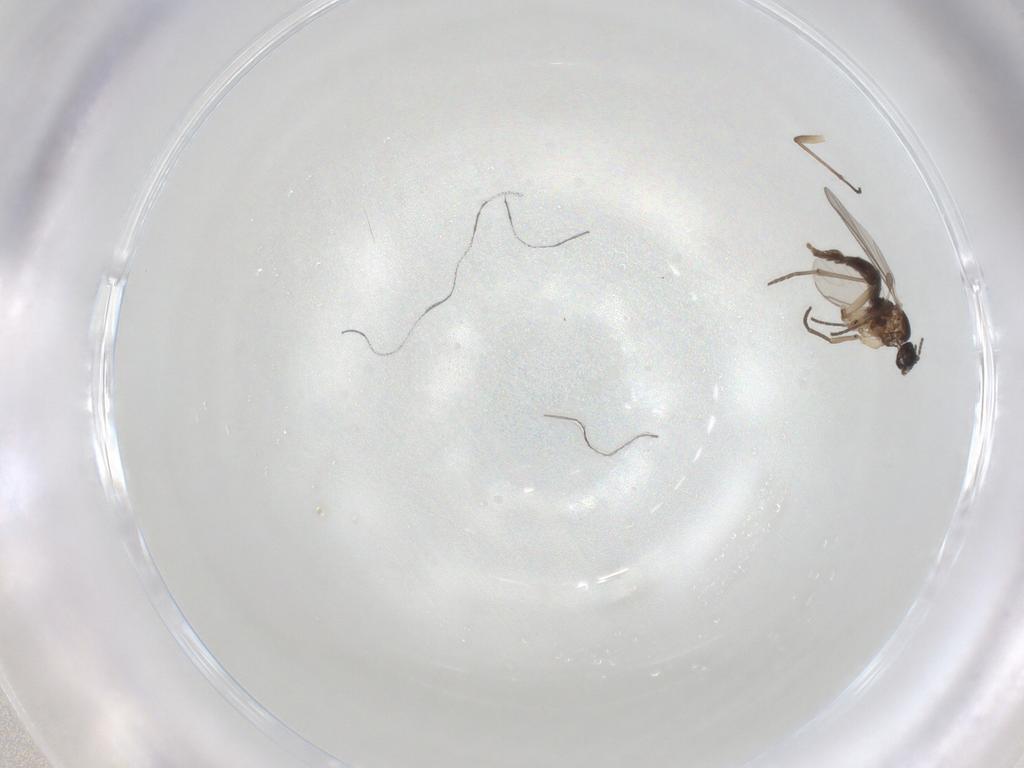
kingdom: Animalia
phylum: Arthropoda
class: Insecta
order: Diptera
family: Sciaridae
